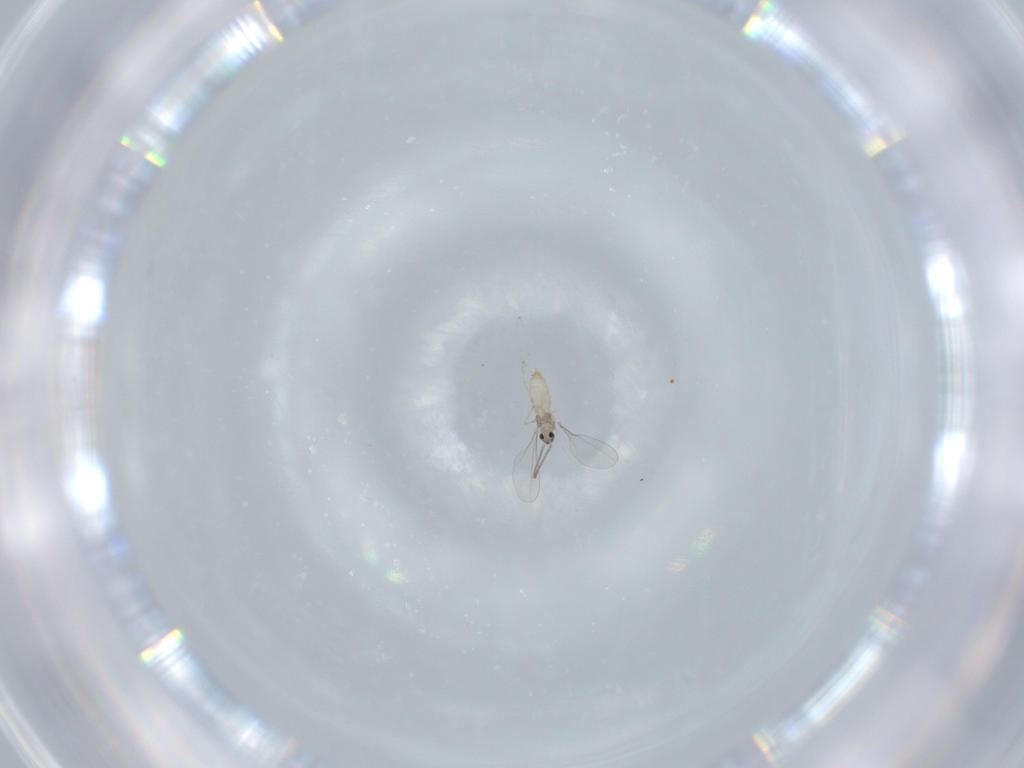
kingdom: Animalia
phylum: Arthropoda
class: Insecta
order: Diptera
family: Cecidomyiidae
